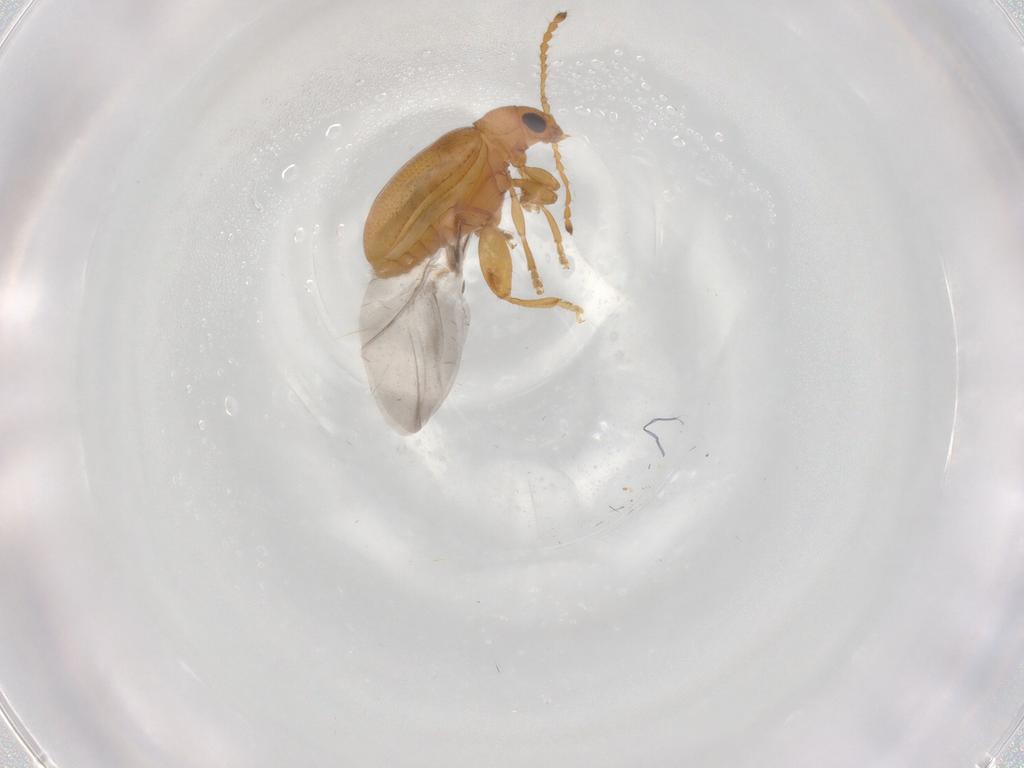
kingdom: Animalia
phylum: Arthropoda
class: Insecta
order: Coleoptera
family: Chrysomelidae
